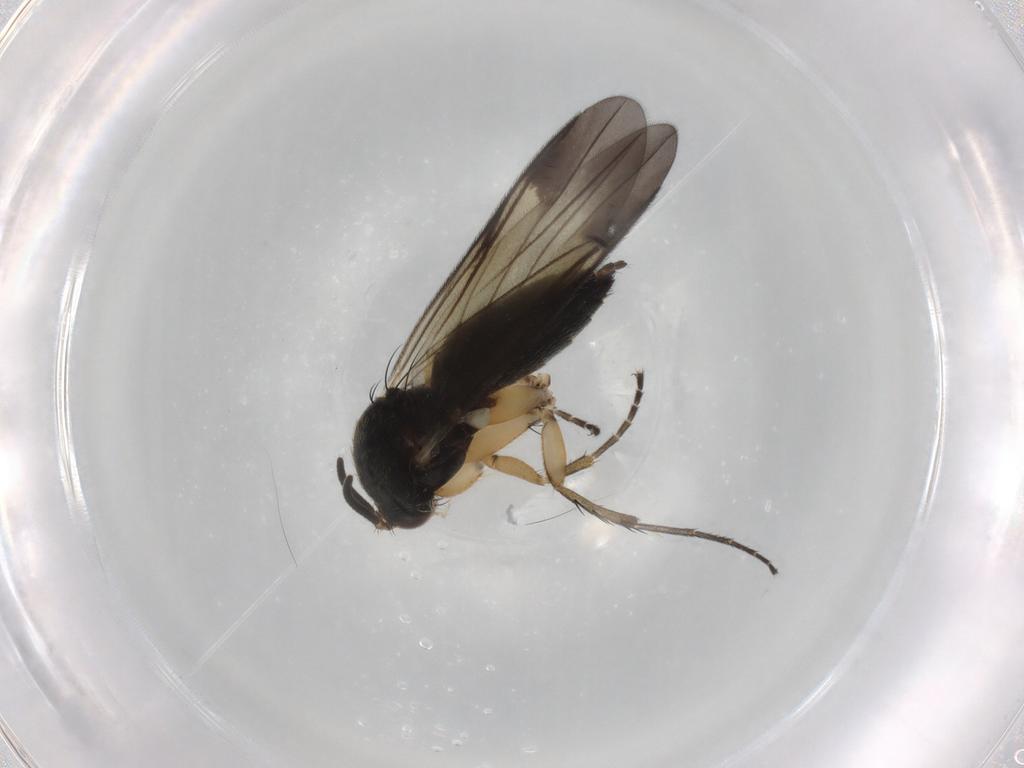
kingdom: Animalia
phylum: Arthropoda
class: Insecta
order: Diptera
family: Mycetophilidae
